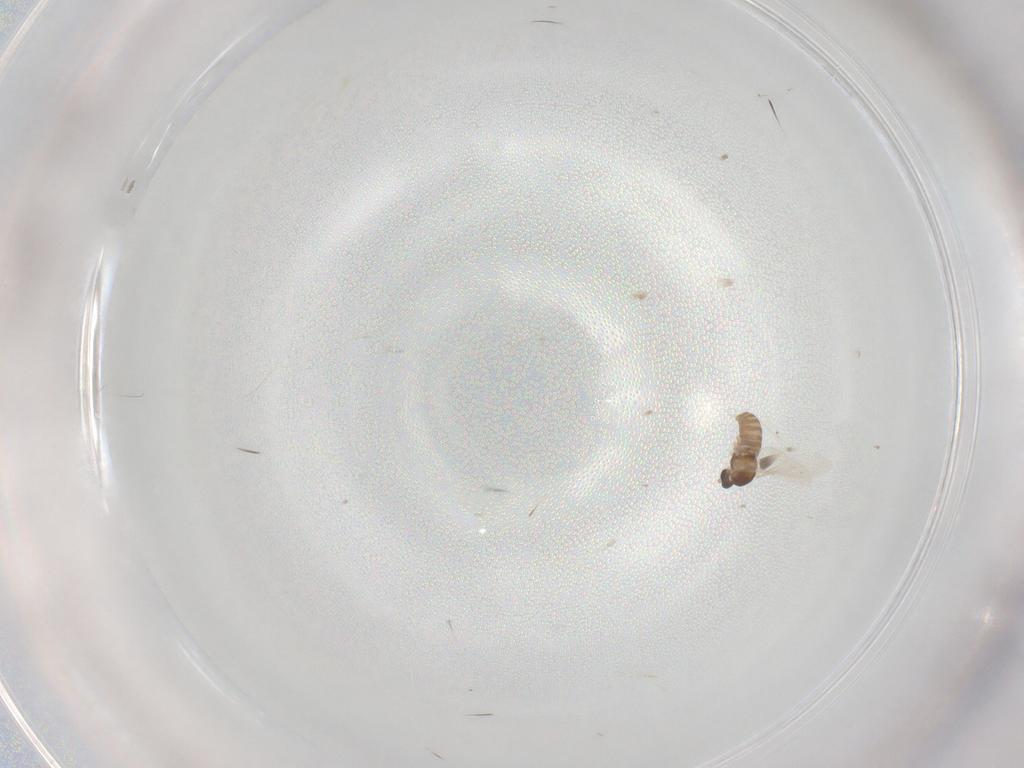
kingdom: Animalia
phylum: Arthropoda
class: Insecta
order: Diptera
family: Cecidomyiidae
